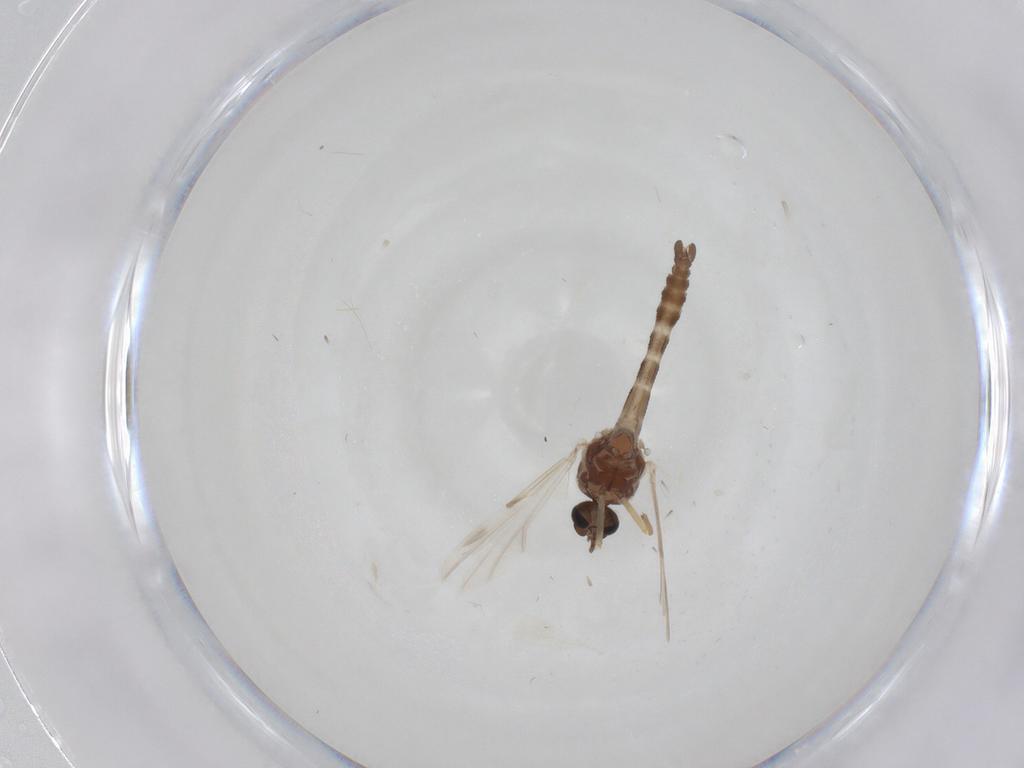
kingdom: Animalia
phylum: Arthropoda
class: Insecta
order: Diptera
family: Ceratopogonidae
